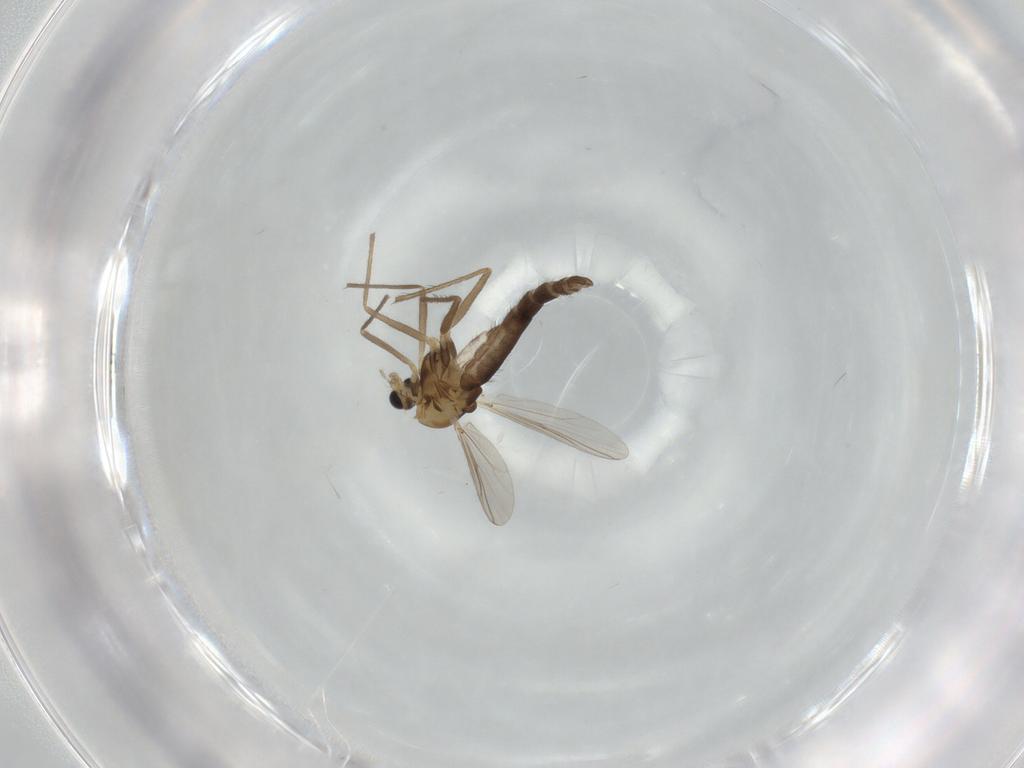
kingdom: Animalia
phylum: Arthropoda
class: Insecta
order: Diptera
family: Chironomidae
